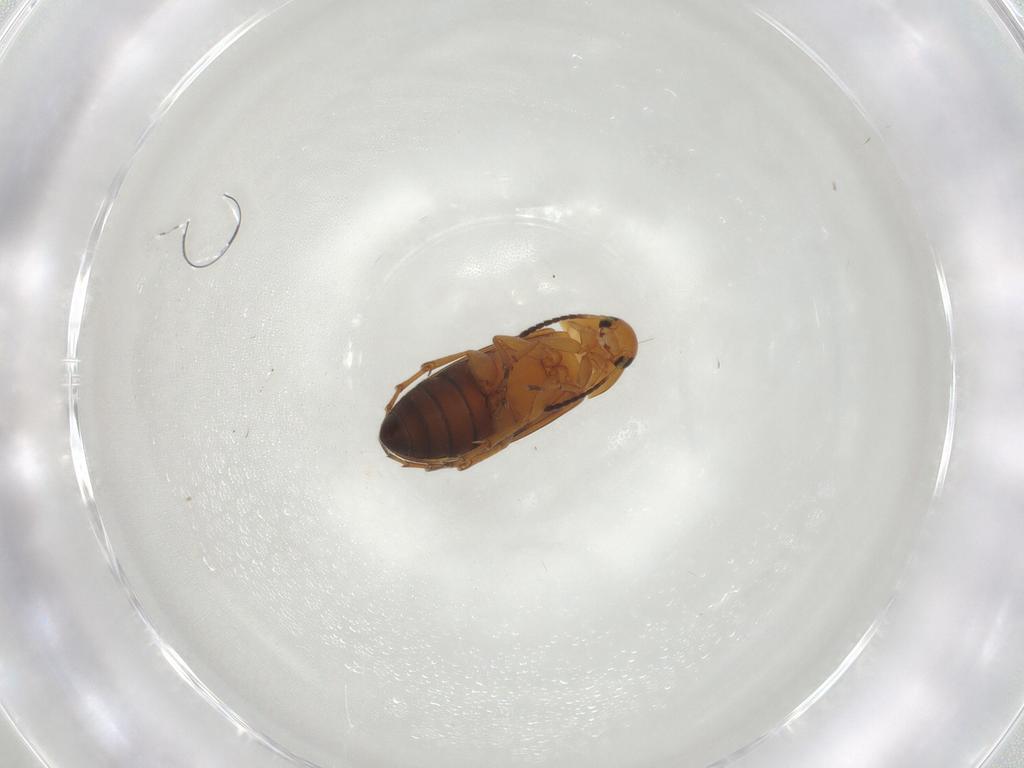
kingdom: Animalia
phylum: Arthropoda
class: Insecta
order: Coleoptera
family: Scraptiidae
